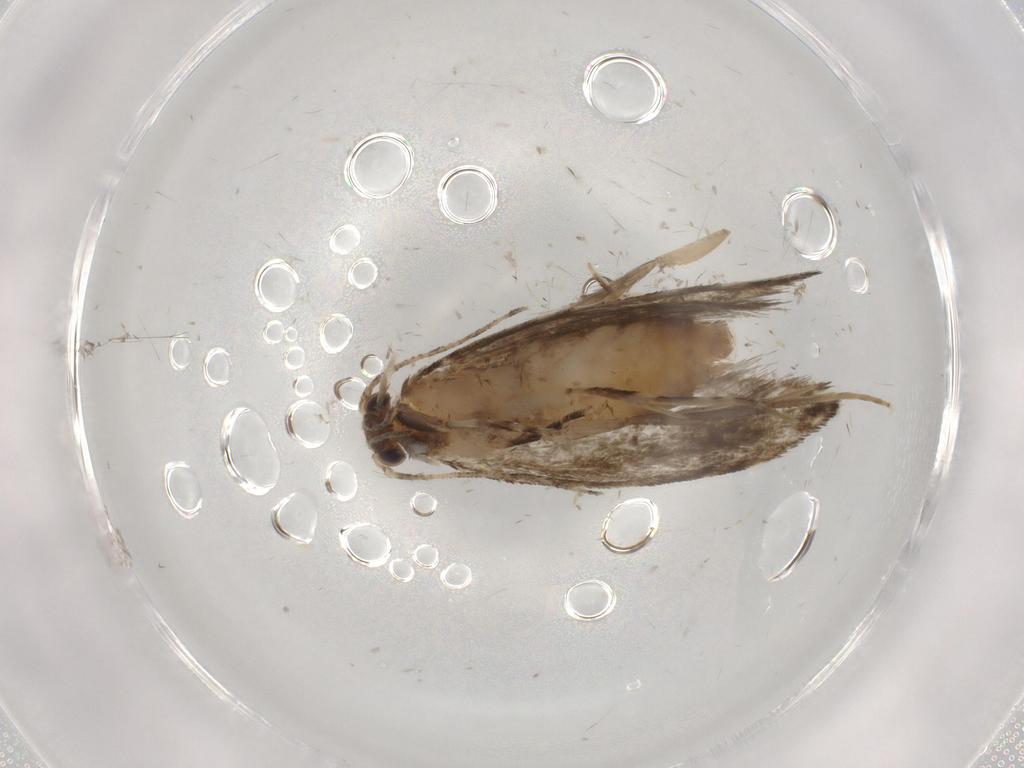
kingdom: Animalia
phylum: Arthropoda
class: Insecta
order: Lepidoptera
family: Tineidae
